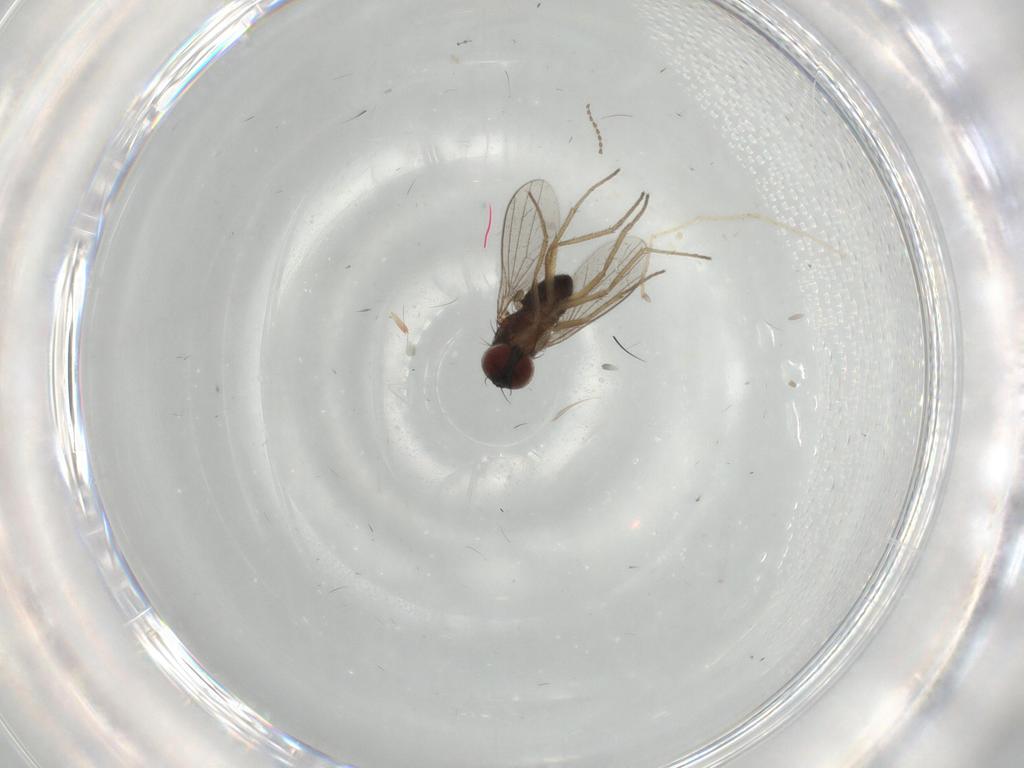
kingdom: Animalia
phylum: Arthropoda
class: Insecta
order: Diptera
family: Dolichopodidae
